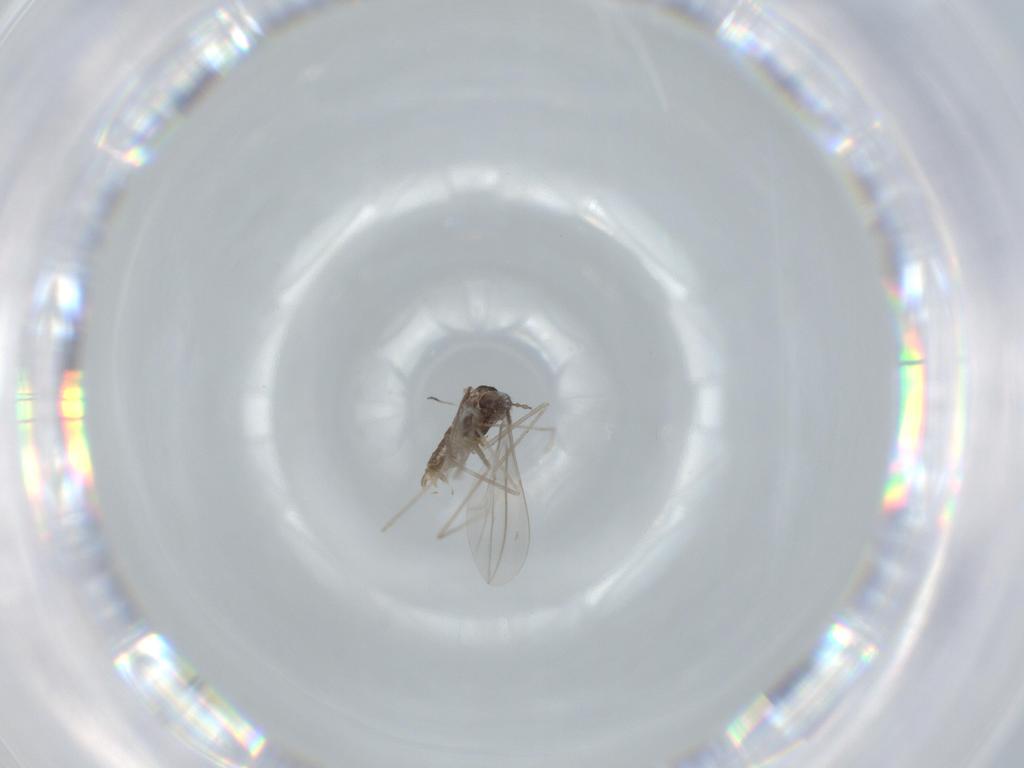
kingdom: Animalia
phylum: Arthropoda
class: Insecta
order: Diptera
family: Cecidomyiidae
